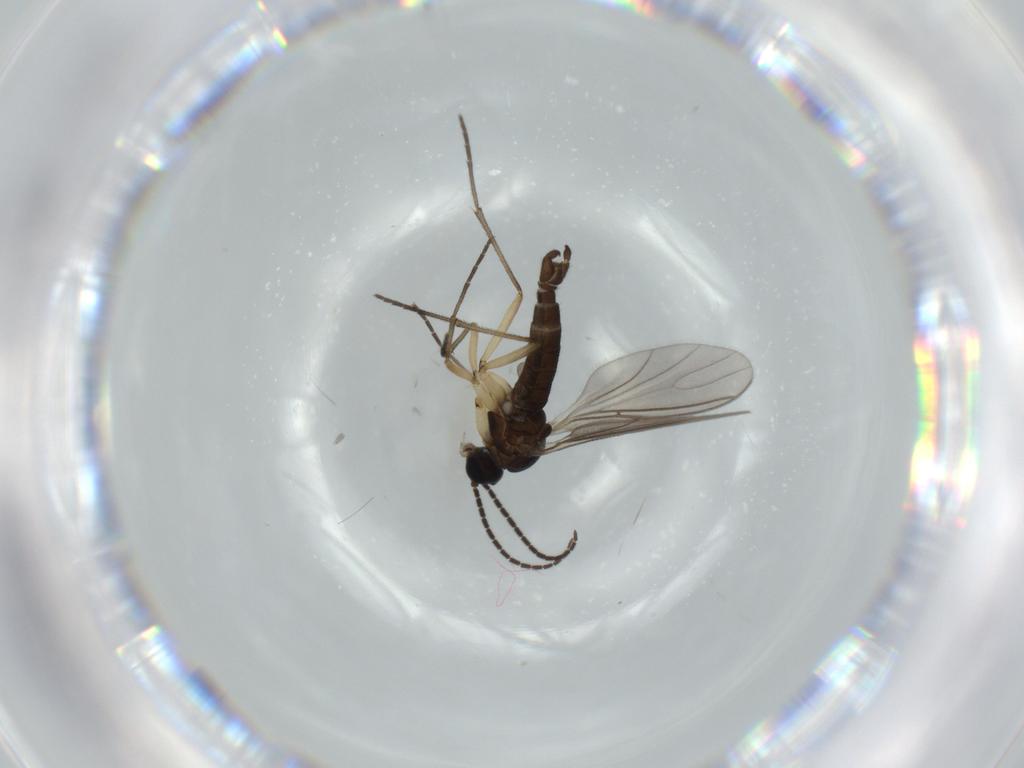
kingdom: Animalia
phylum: Arthropoda
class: Insecta
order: Diptera
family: Sciaridae
